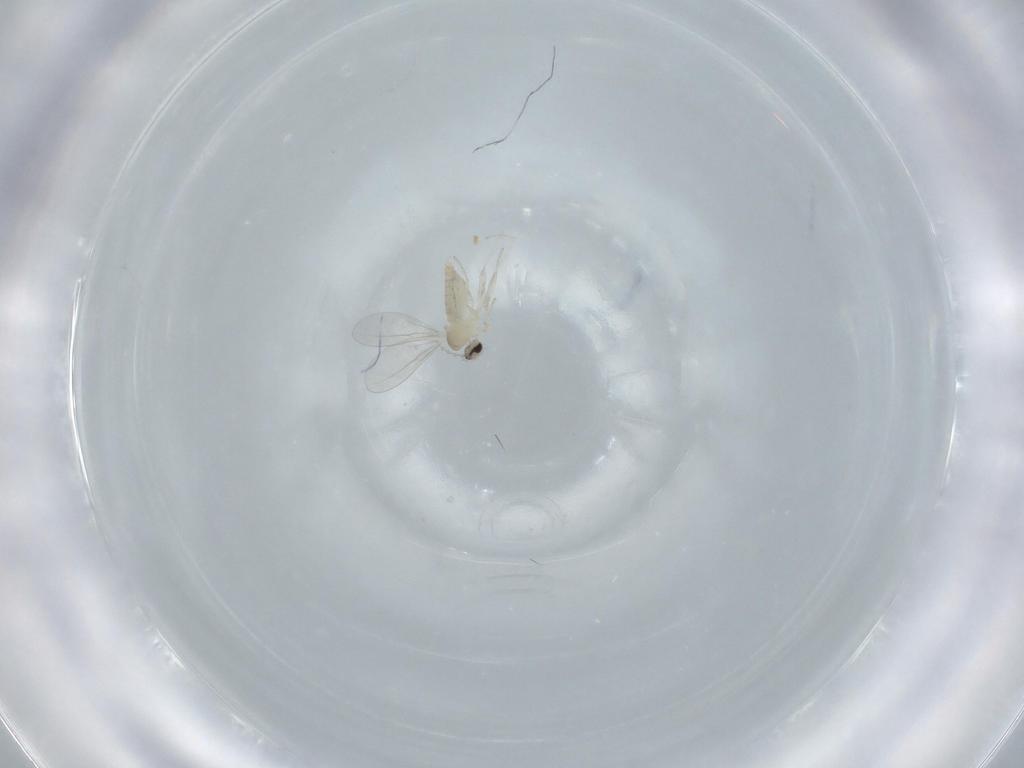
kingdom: Animalia
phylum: Arthropoda
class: Insecta
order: Diptera
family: Cecidomyiidae
